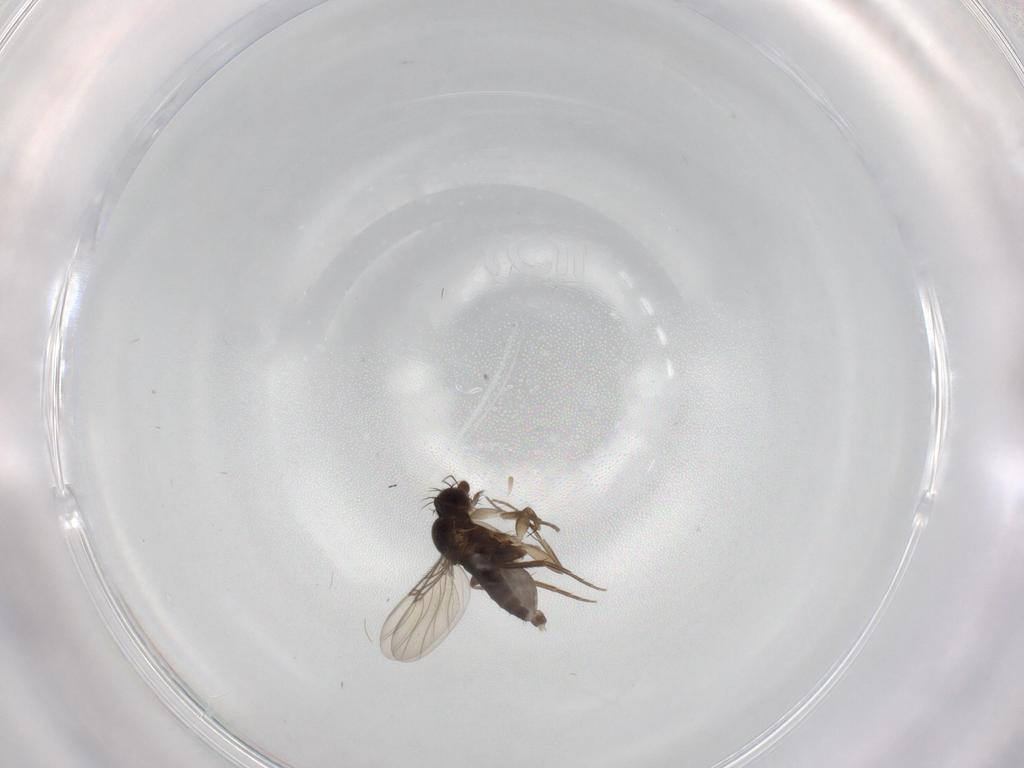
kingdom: Animalia
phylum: Arthropoda
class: Insecta
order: Diptera
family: Phoridae
